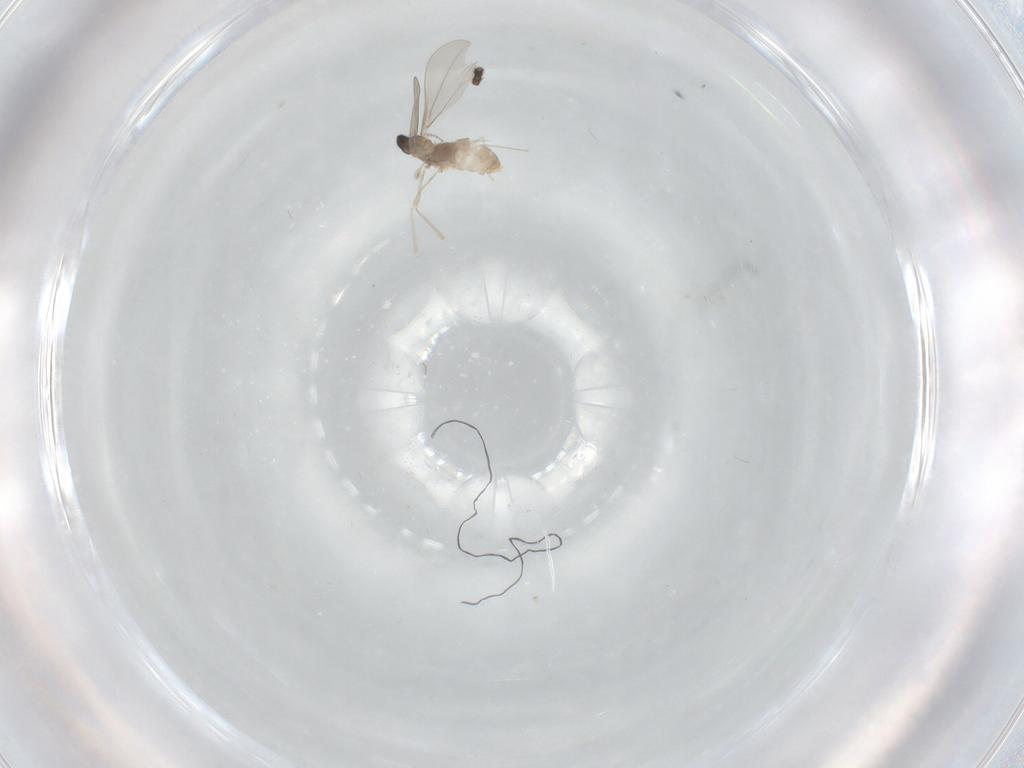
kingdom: Animalia
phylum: Arthropoda
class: Insecta
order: Diptera
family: Sciaridae
